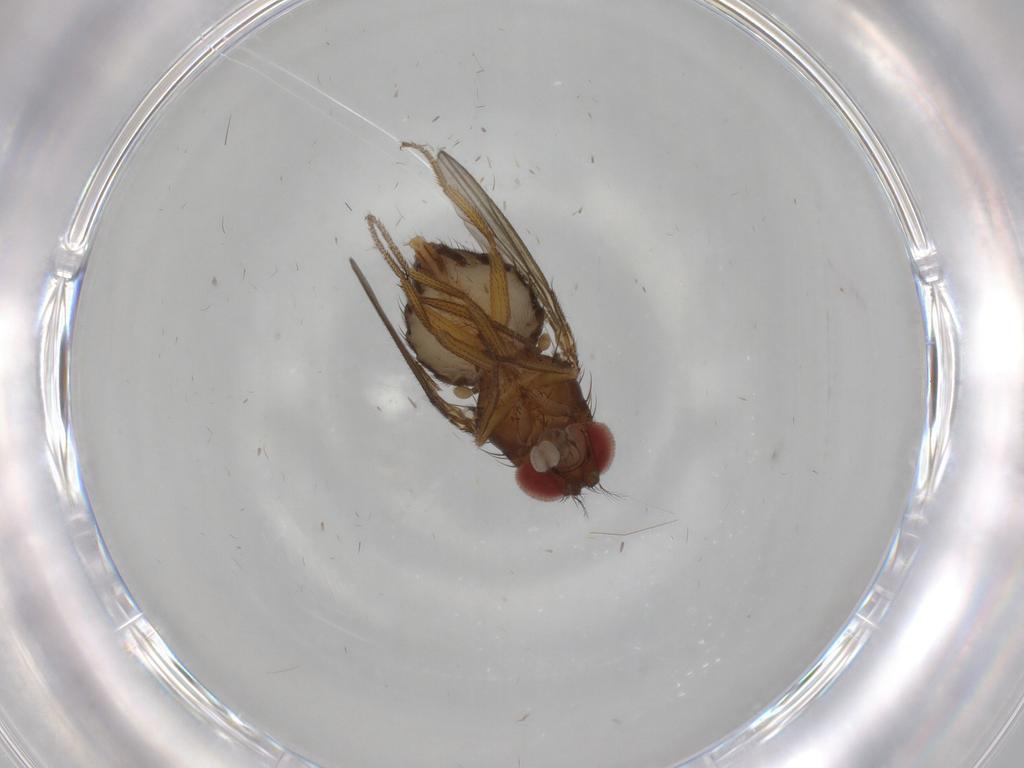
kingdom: Animalia
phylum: Arthropoda
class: Insecta
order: Diptera
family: Drosophilidae
